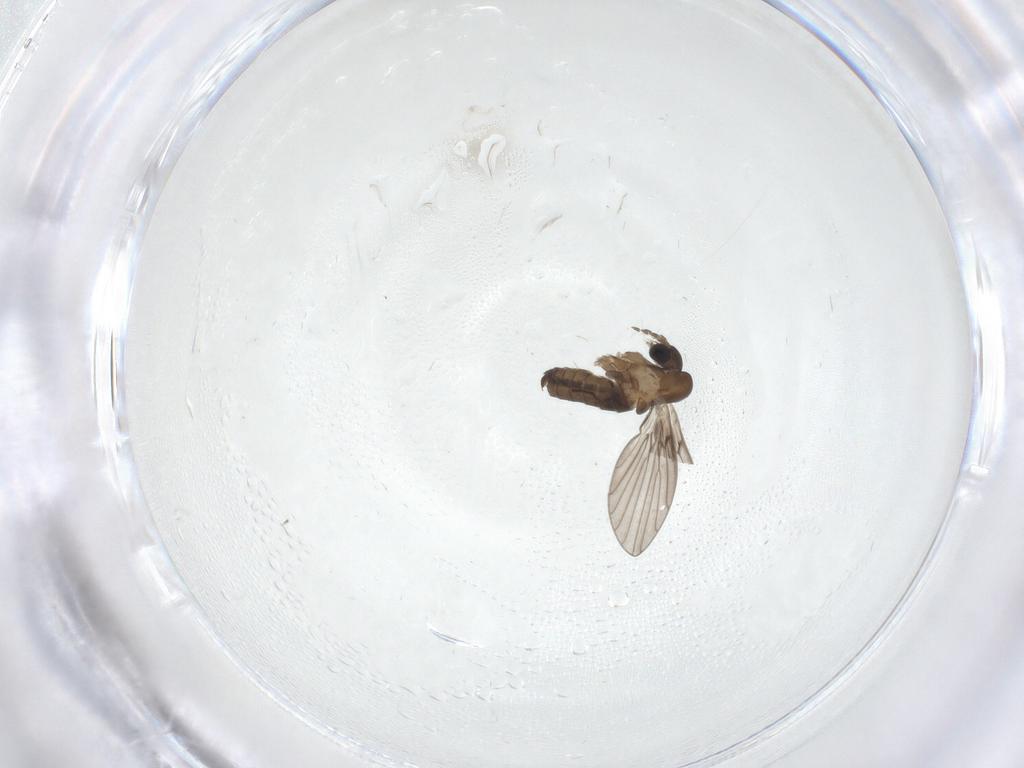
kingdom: Animalia
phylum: Arthropoda
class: Insecta
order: Diptera
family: Psychodidae
